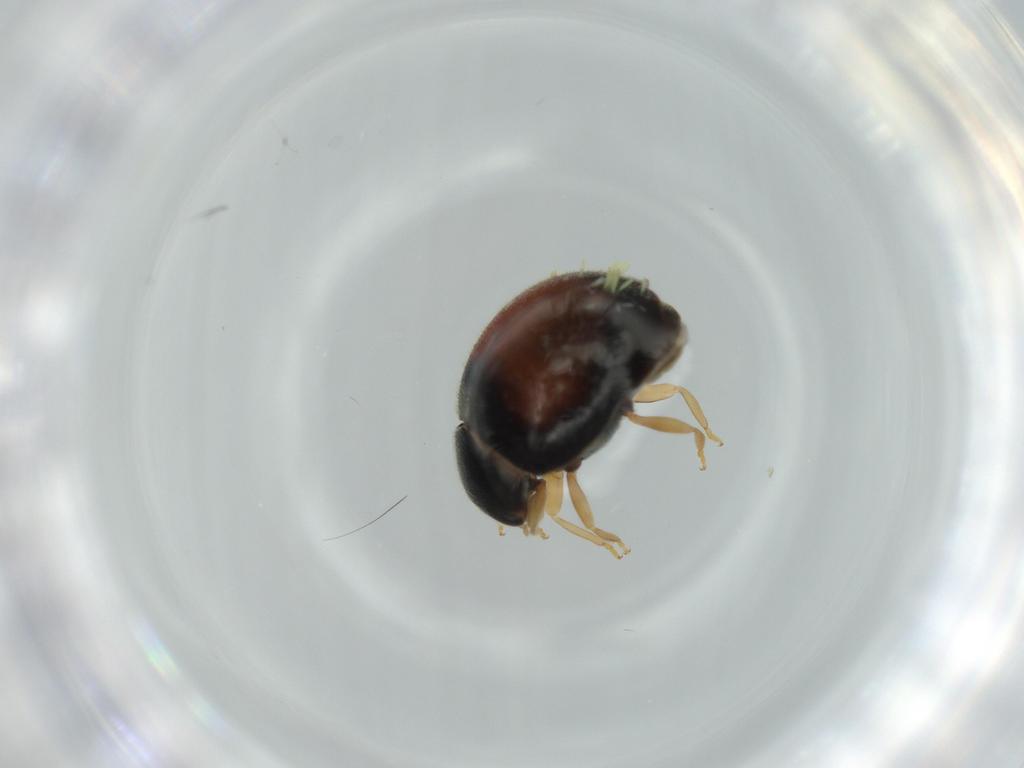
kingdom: Animalia
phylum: Arthropoda
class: Insecta
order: Coleoptera
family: Coccinellidae
